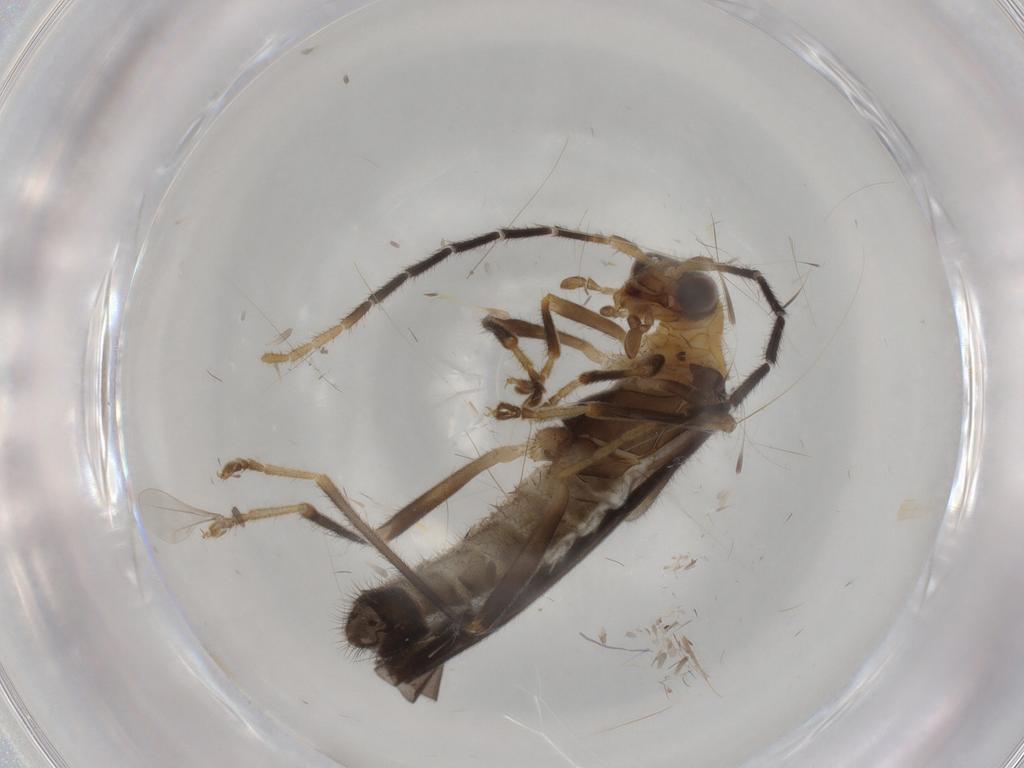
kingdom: Animalia
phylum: Arthropoda
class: Insecta
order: Coleoptera
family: Cantharidae
